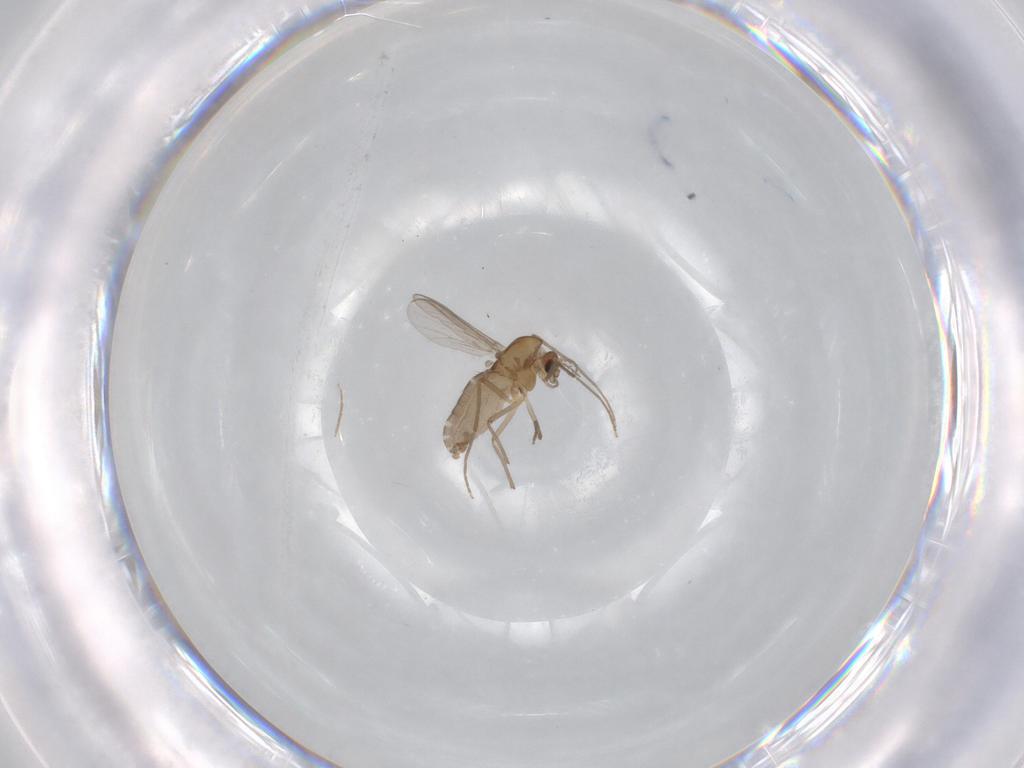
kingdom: Animalia
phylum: Arthropoda
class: Insecta
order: Diptera
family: Chironomidae
